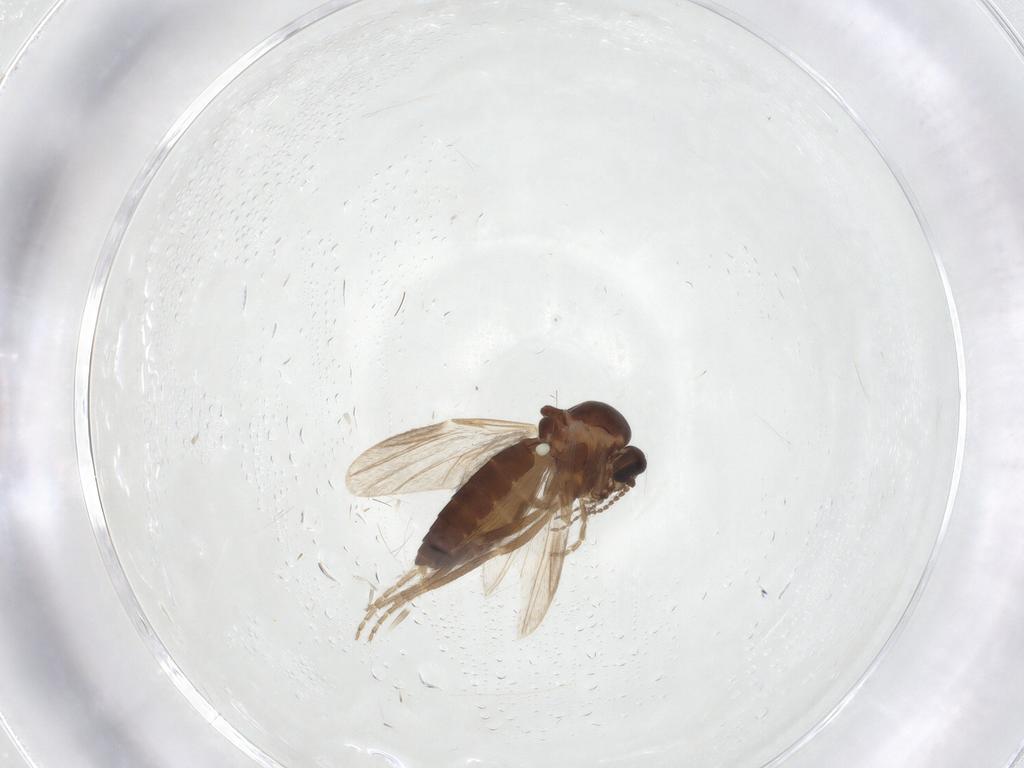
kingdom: Animalia
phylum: Arthropoda
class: Insecta
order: Diptera
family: Ceratopogonidae
